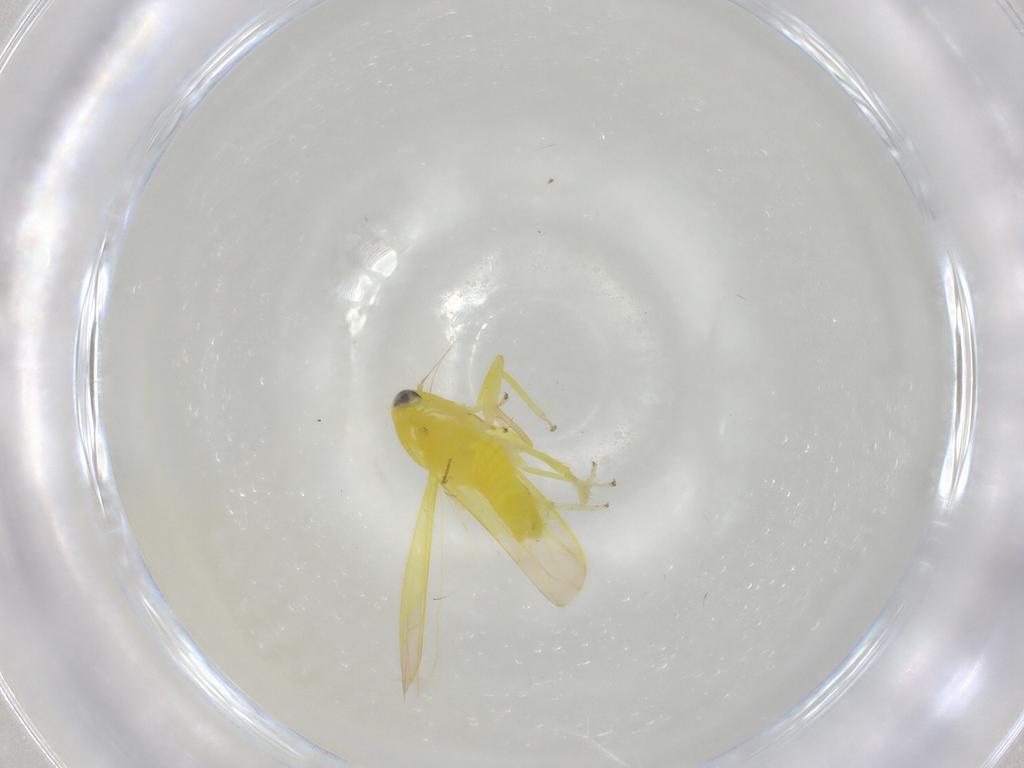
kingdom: Animalia
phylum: Arthropoda
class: Insecta
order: Hemiptera
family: Cicadellidae
